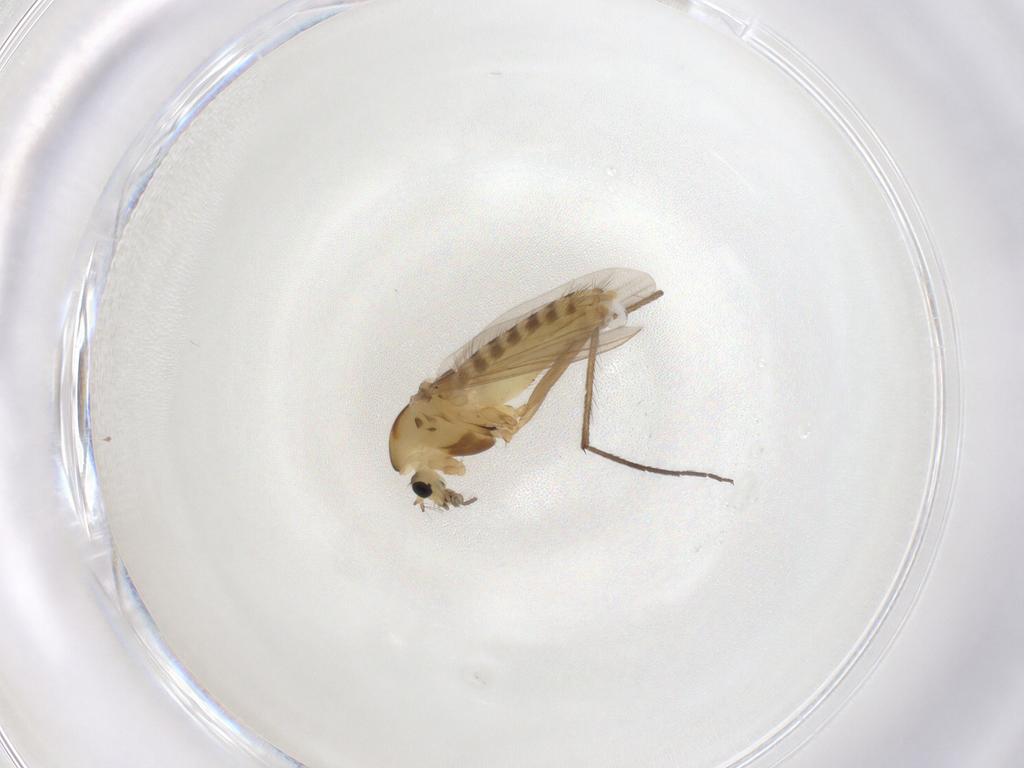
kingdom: Animalia
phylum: Arthropoda
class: Insecta
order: Diptera
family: Chironomidae
